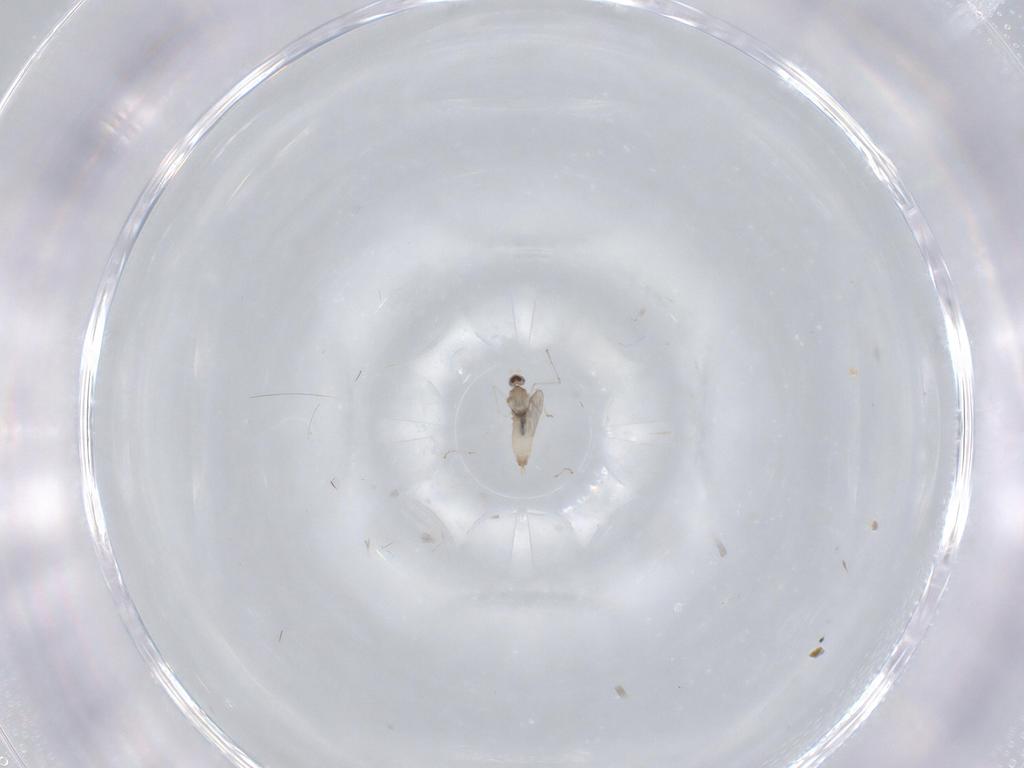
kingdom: Animalia
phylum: Arthropoda
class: Insecta
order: Diptera
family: Cecidomyiidae
